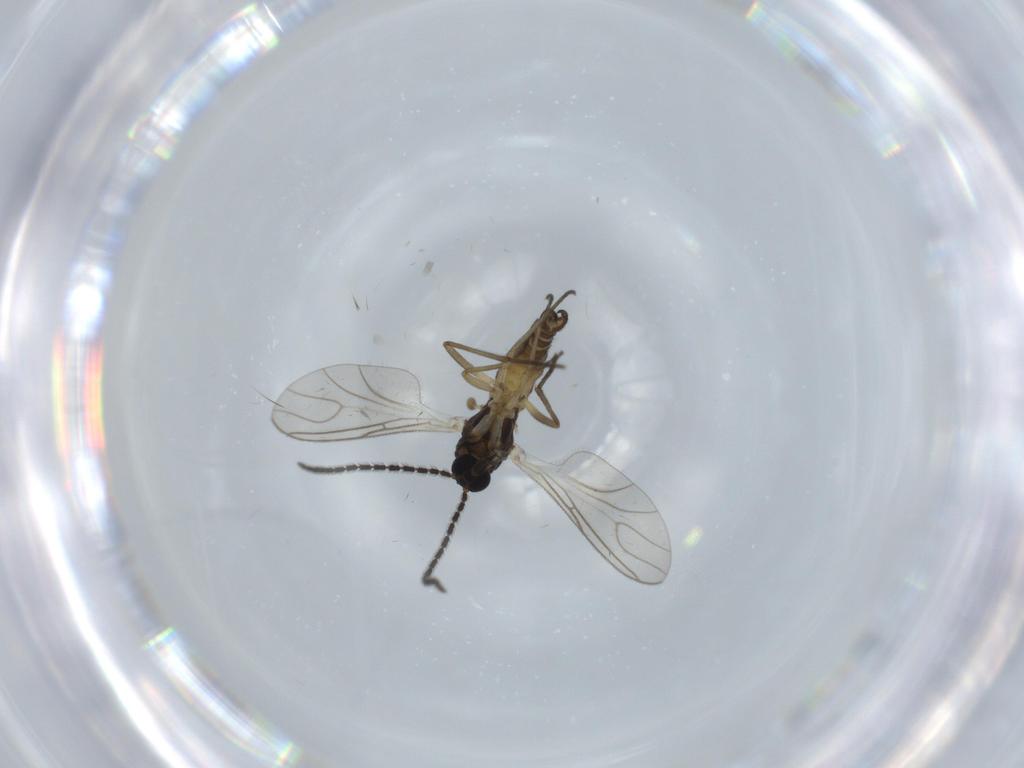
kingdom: Animalia
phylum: Arthropoda
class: Insecta
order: Diptera
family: Sciaridae
